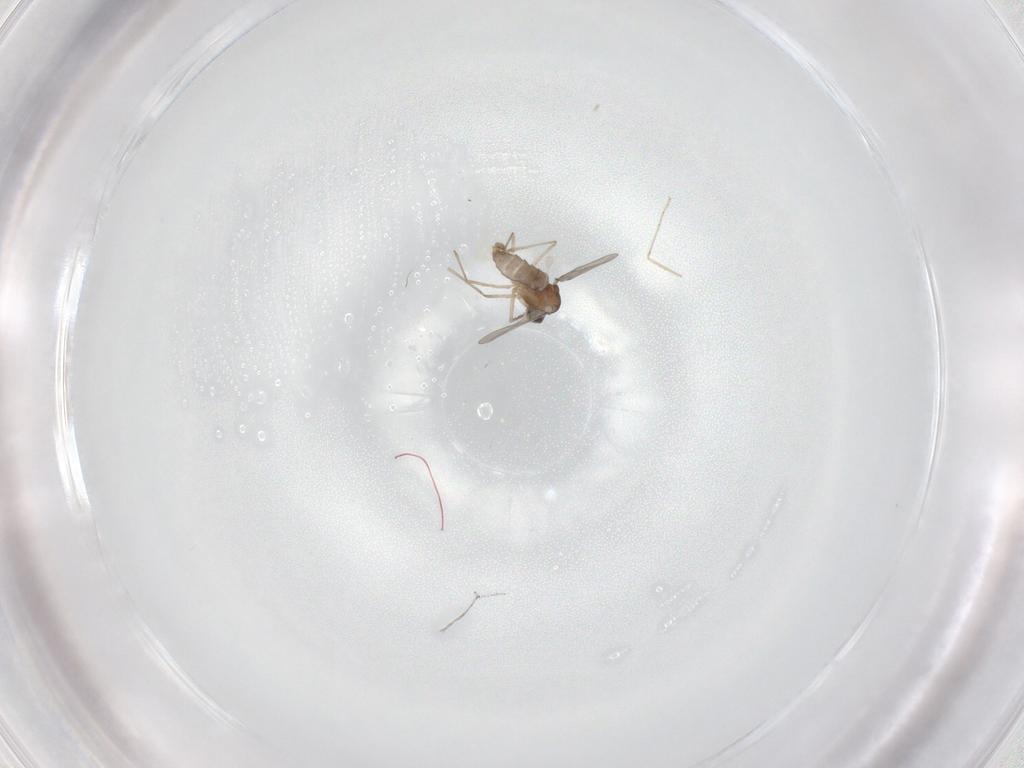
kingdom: Animalia
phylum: Arthropoda
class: Insecta
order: Diptera
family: Cecidomyiidae
